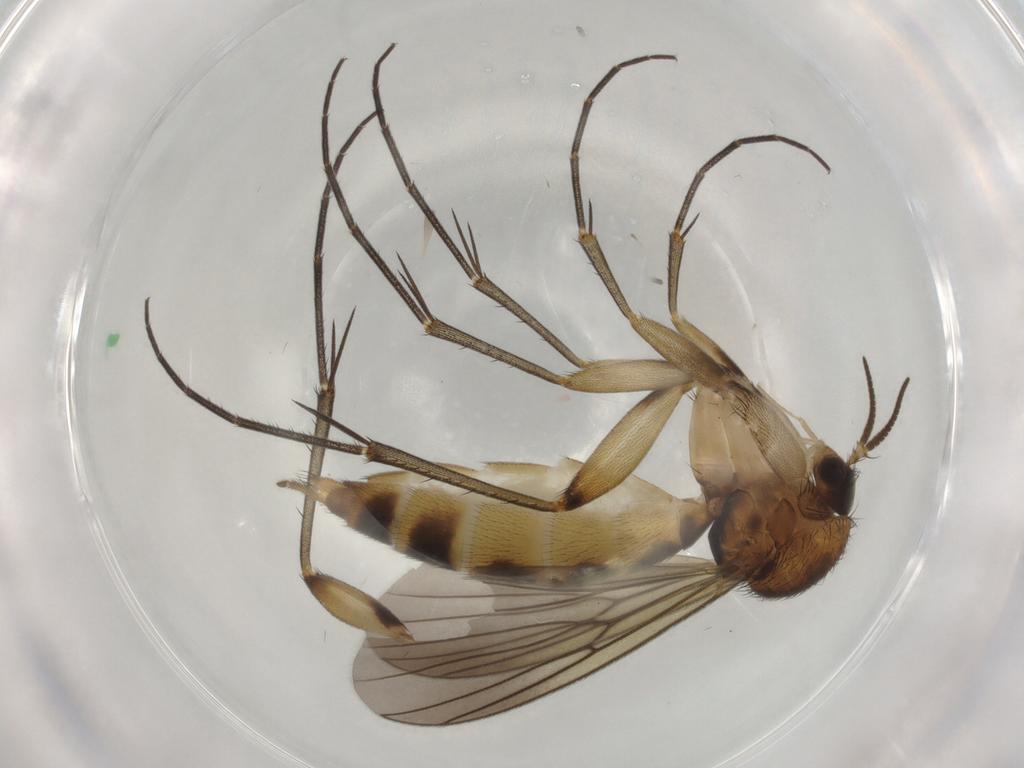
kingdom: Animalia
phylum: Arthropoda
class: Insecta
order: Diptera
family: Mycetophilidae
